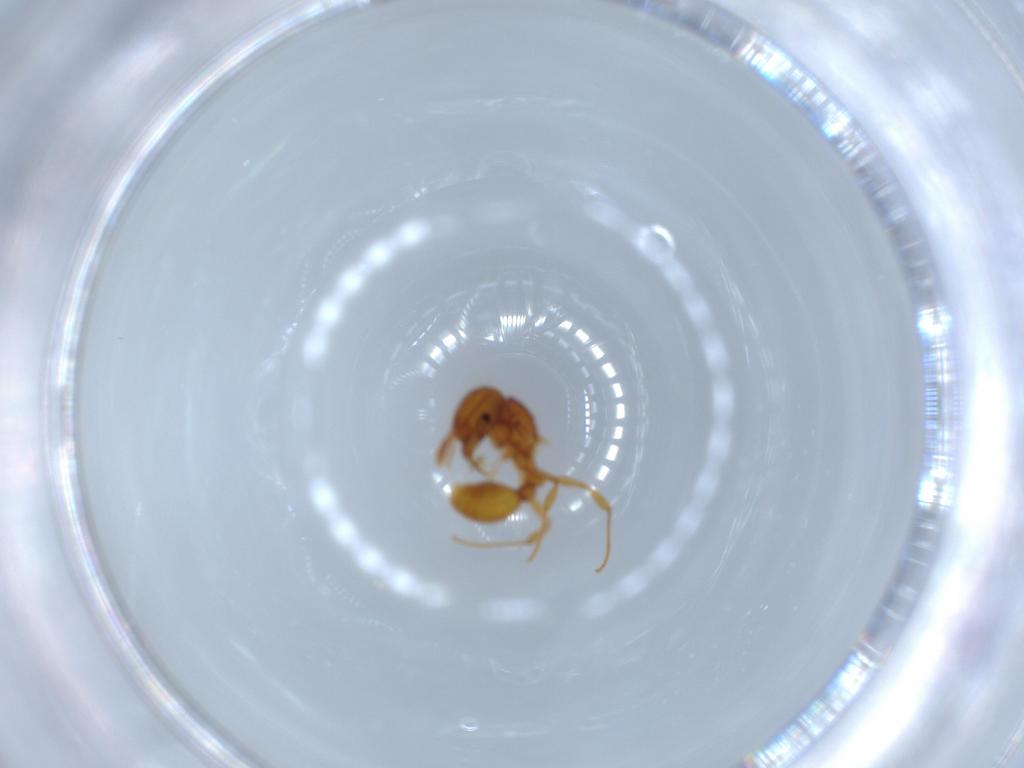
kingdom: Animalia
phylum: Arthropoda
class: Insecta
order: Hymenoptera
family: Formicidae
